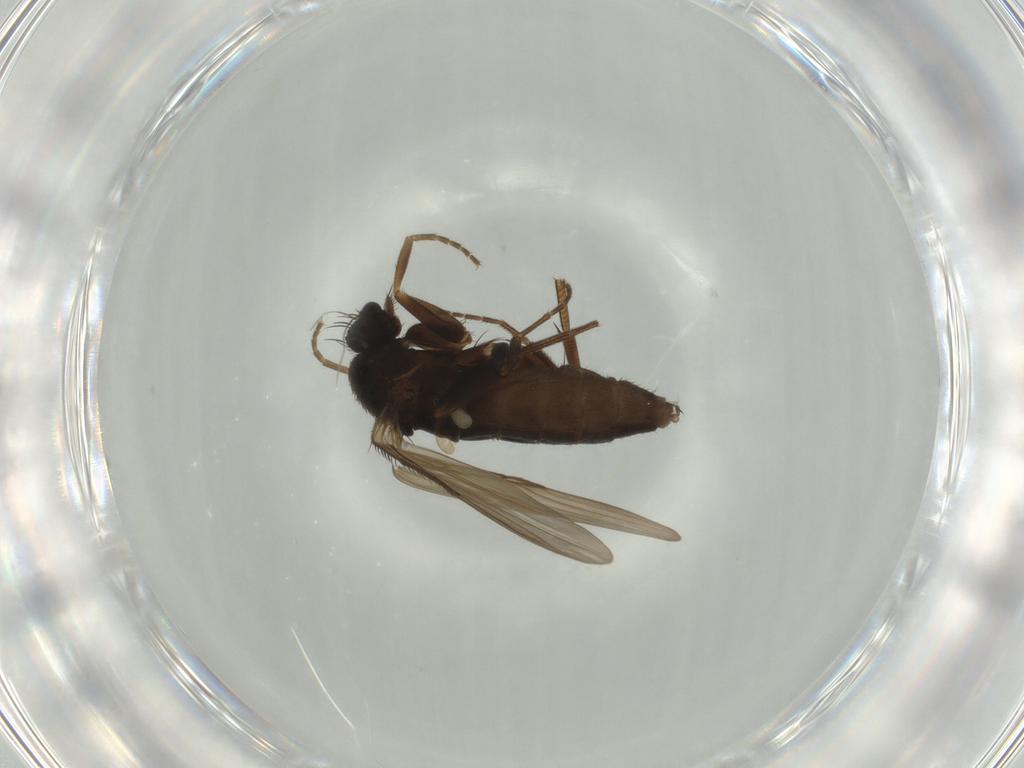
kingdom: Animalia
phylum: Arthropoda
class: Insecta
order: Diptera
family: Phoridae
